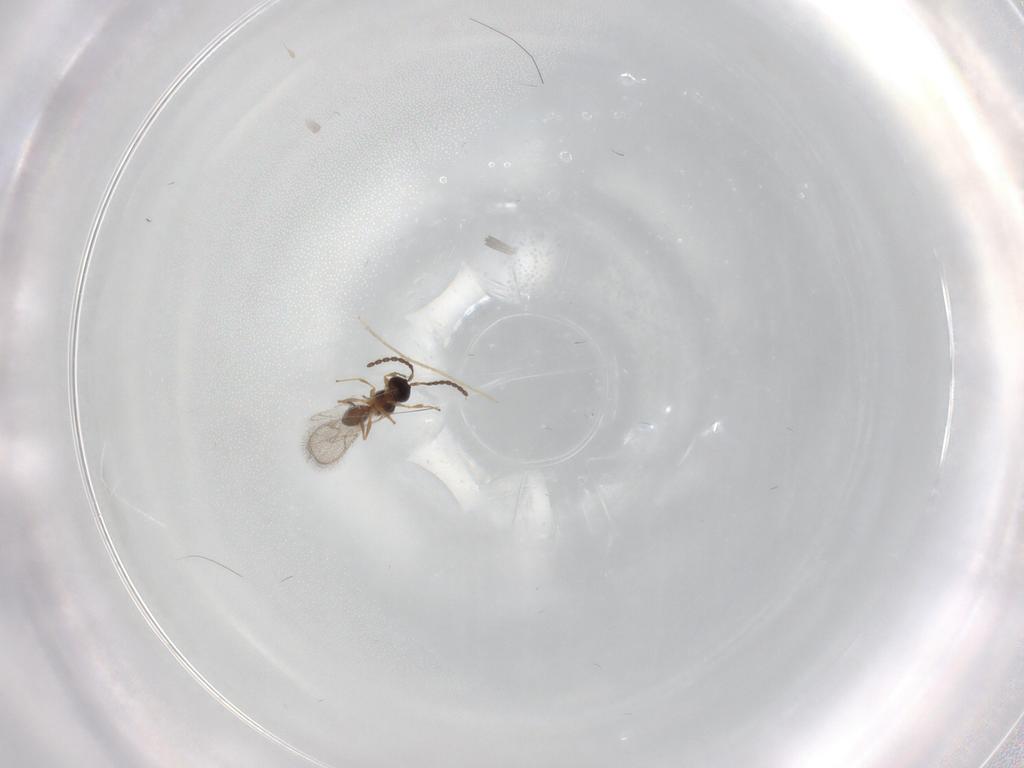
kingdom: Animalia
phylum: Arthropoda
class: Insecta
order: Hymenoptera
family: Figitidae
